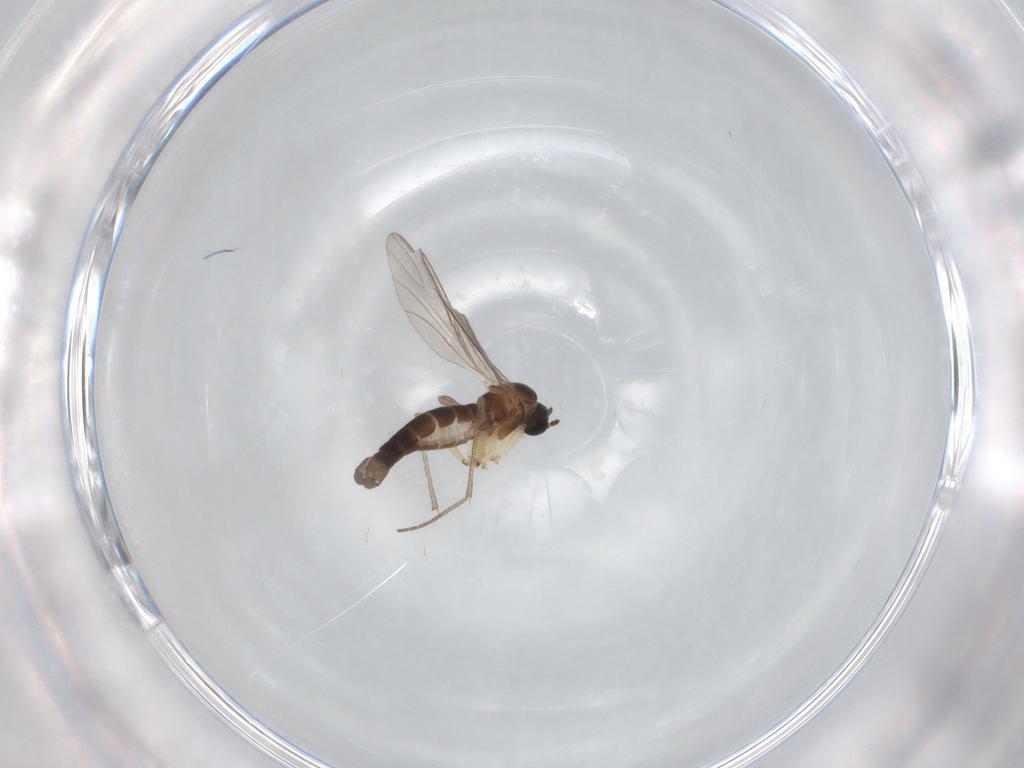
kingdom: Animalia
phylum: Arthropoda
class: Insecta
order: Diptera
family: Sciaridae
